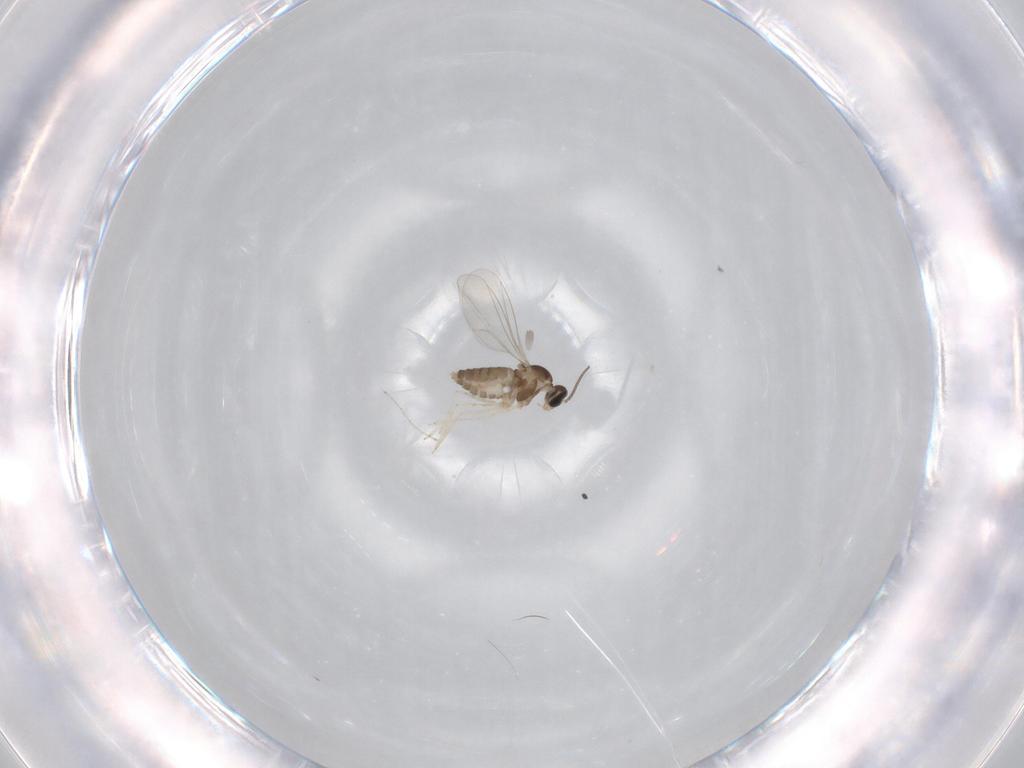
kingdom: Animalia
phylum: Arthropoda
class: Insecta
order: Diptera
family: Cecidomyiidae
